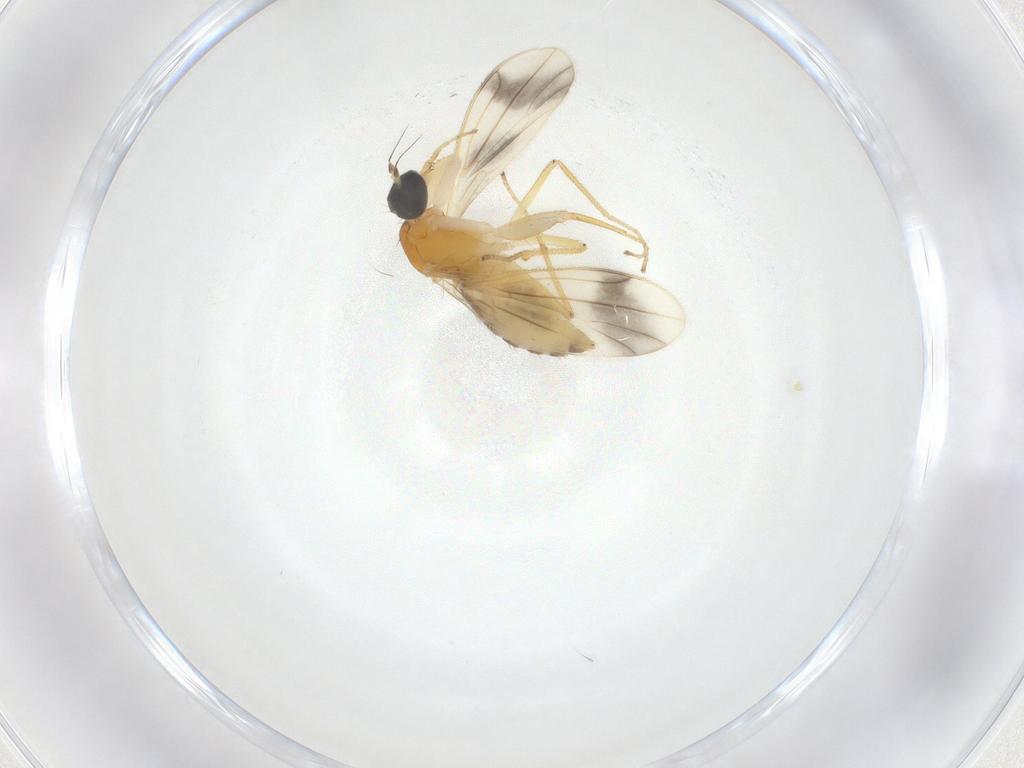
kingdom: Animalia
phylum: Arthropoda
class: Insecta
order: Diptera
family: Empididae
